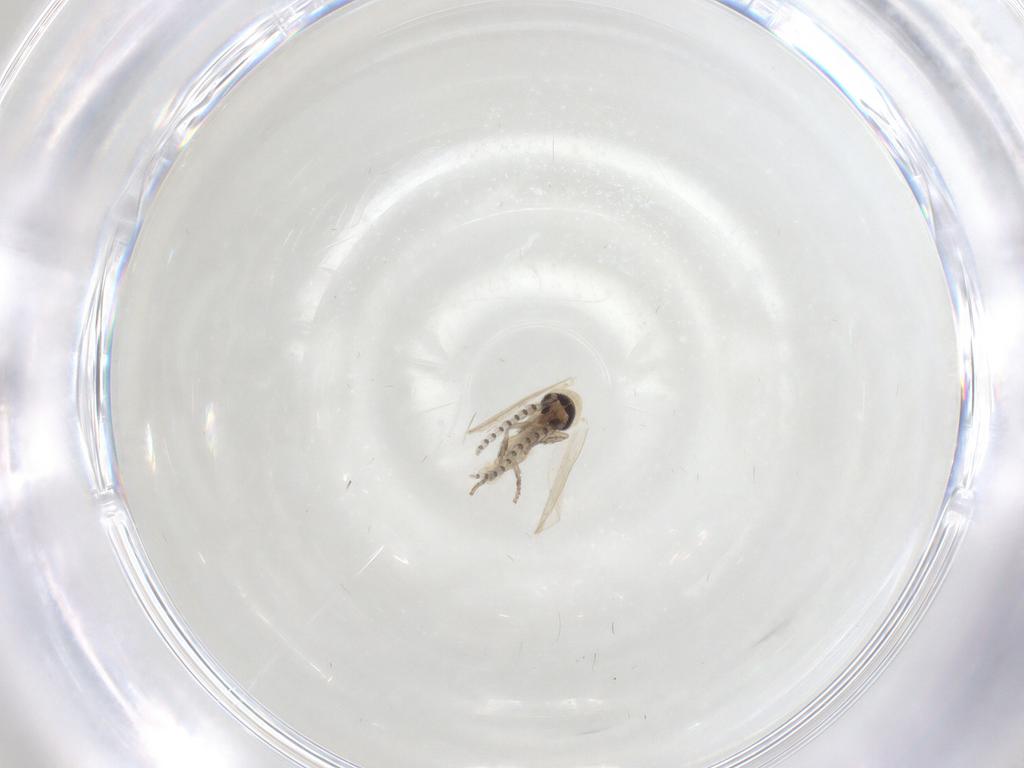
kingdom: Animalia
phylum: Arthropoda
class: Insecta
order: Diptera
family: Psychodidae
